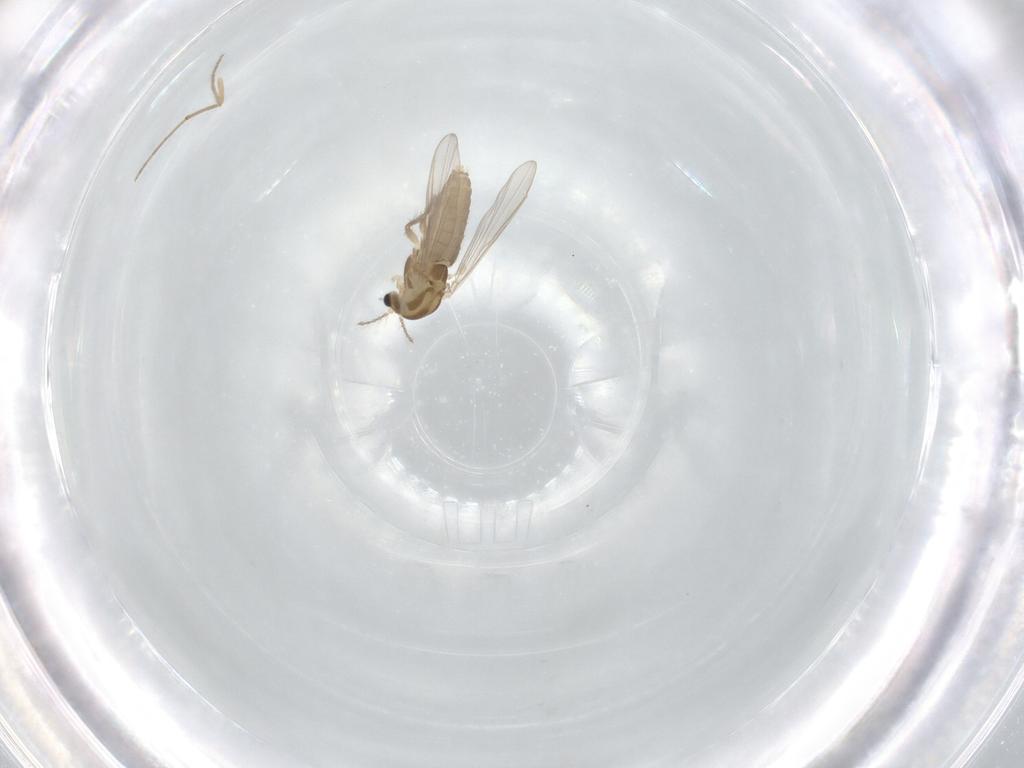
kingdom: Animalia
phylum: Arthropoda
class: Insecta
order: Diptera
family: Chironomidae
